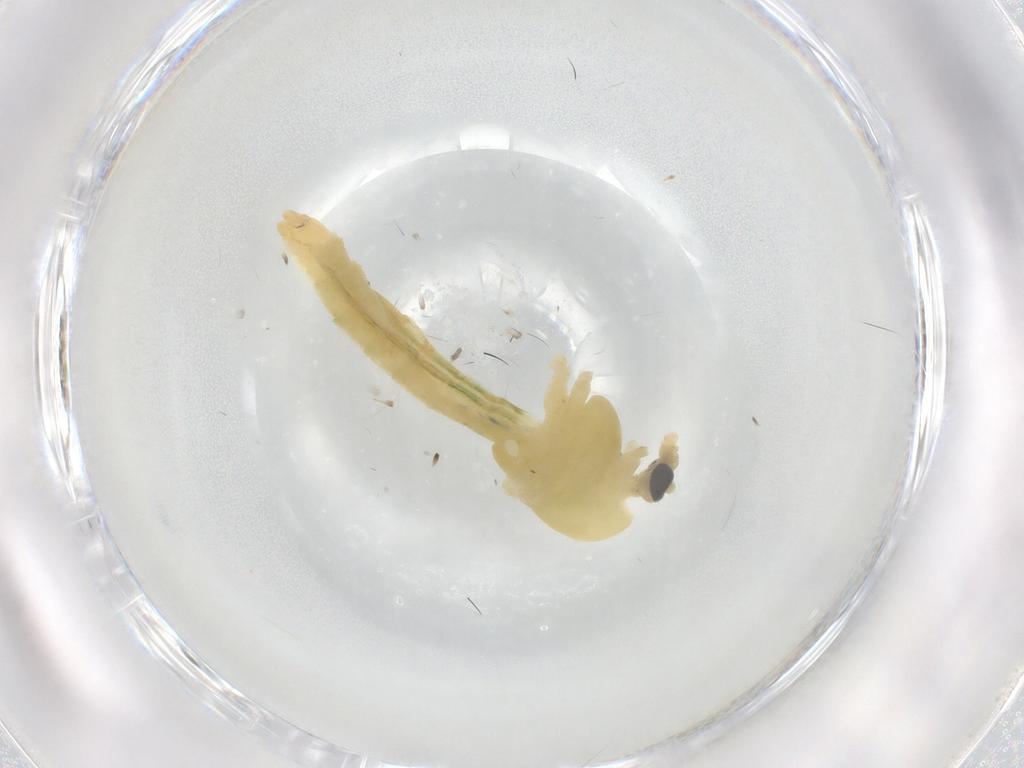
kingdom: Animalia
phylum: Arthropoda
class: Insecta
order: Diptera
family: Chironomidae
